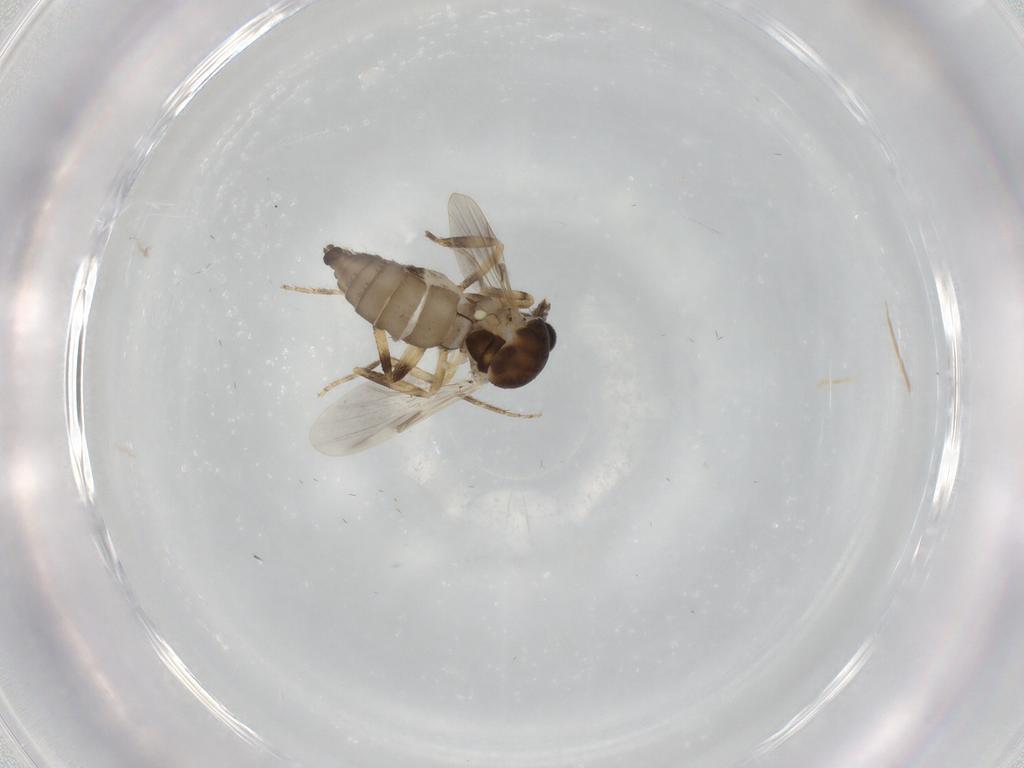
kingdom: Animalia
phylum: Arthropoda
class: Insecta
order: Diptera
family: Ceratopogonidae
